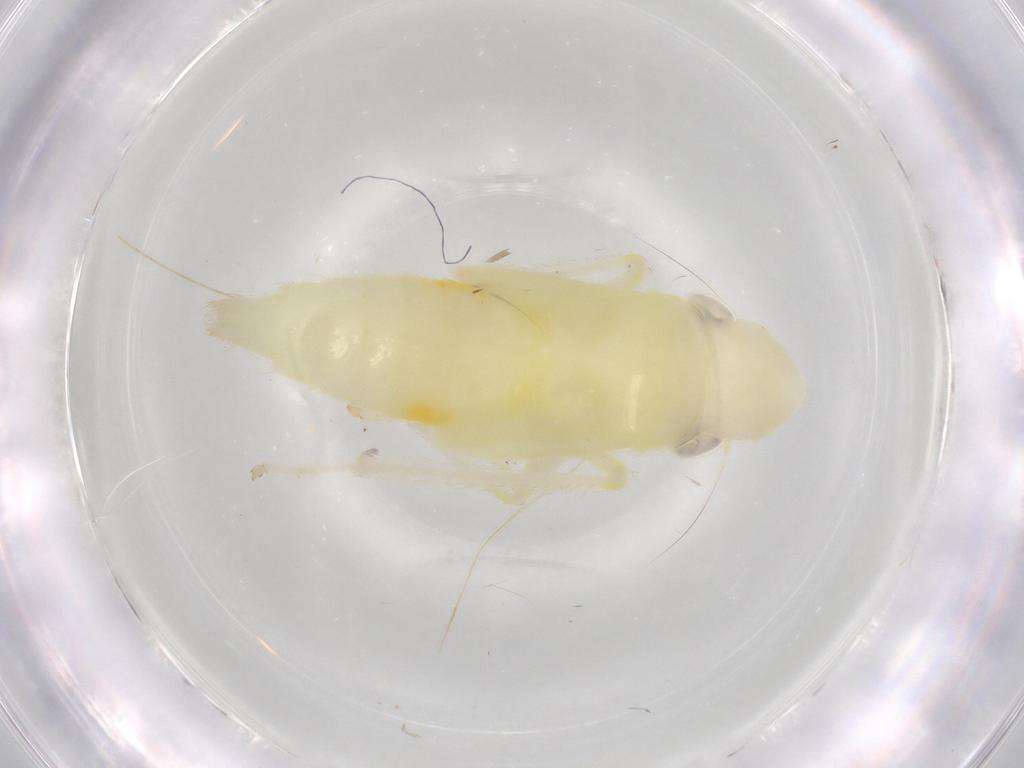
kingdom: Animalia
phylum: Arthropoda
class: Insecta
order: Hemiptera
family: Cicadellidae
